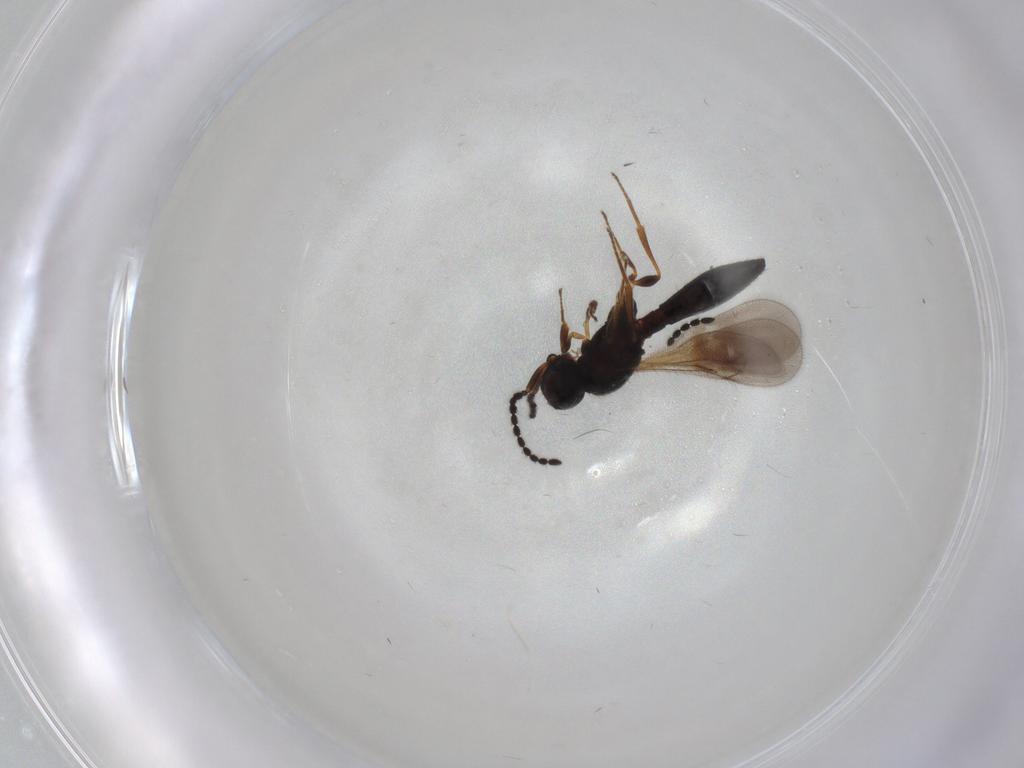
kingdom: Animalia
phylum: Arthropoda
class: Insecta
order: Hymenoptera
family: Scelionidae
